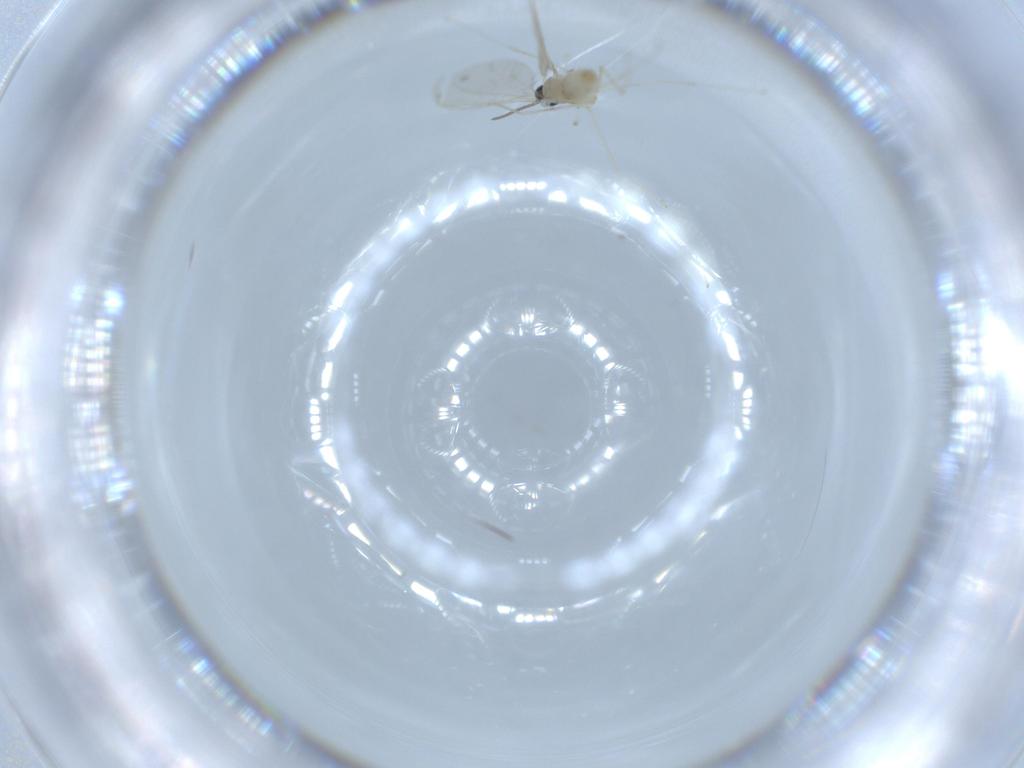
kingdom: Animalia
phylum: Arthropoda
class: Insecta
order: Diptera
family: Cecidomyiidae
